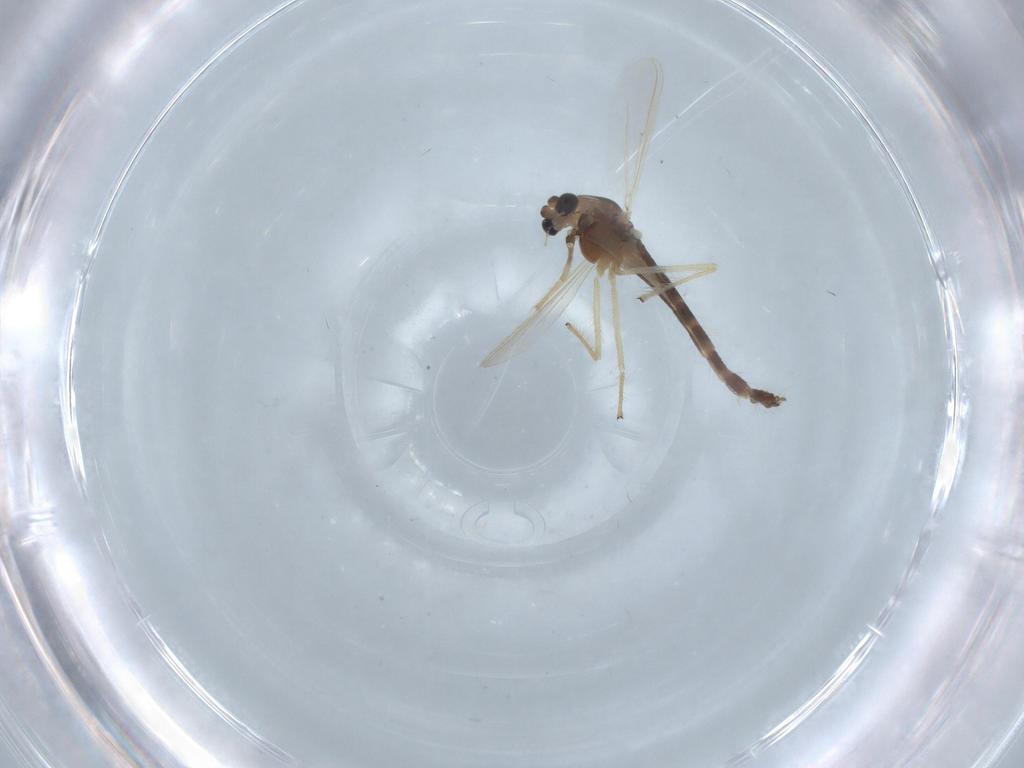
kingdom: Animalia
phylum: Arthropoda
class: Insecta
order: Diptera
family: Chironomidae
